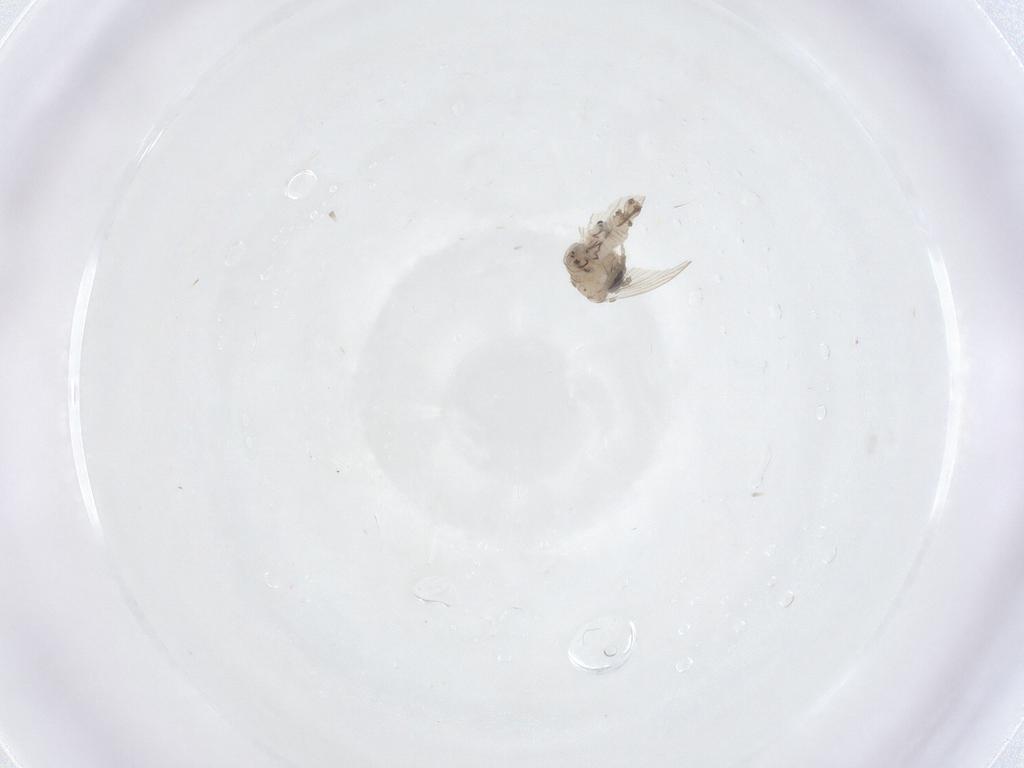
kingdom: Animalia
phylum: Arthropoda
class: Insecta
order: Diptera
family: Psychodidae
